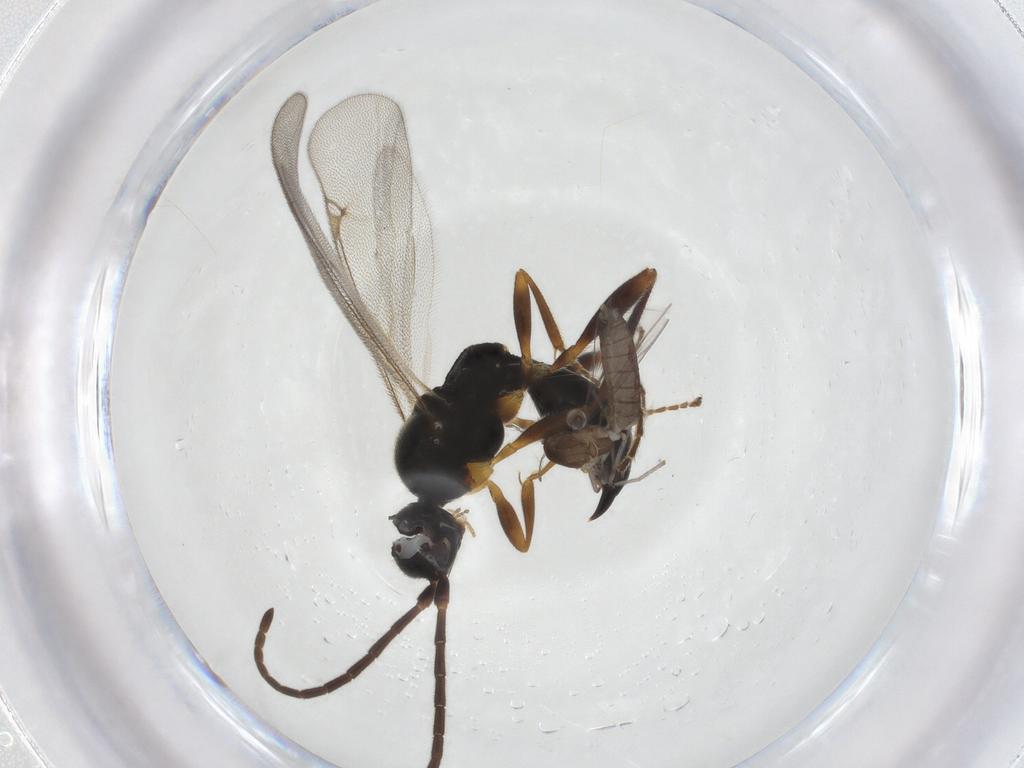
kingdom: Animalia
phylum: Arthropoda
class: Insecta
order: Hymenoptera
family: Proctotrupidae
